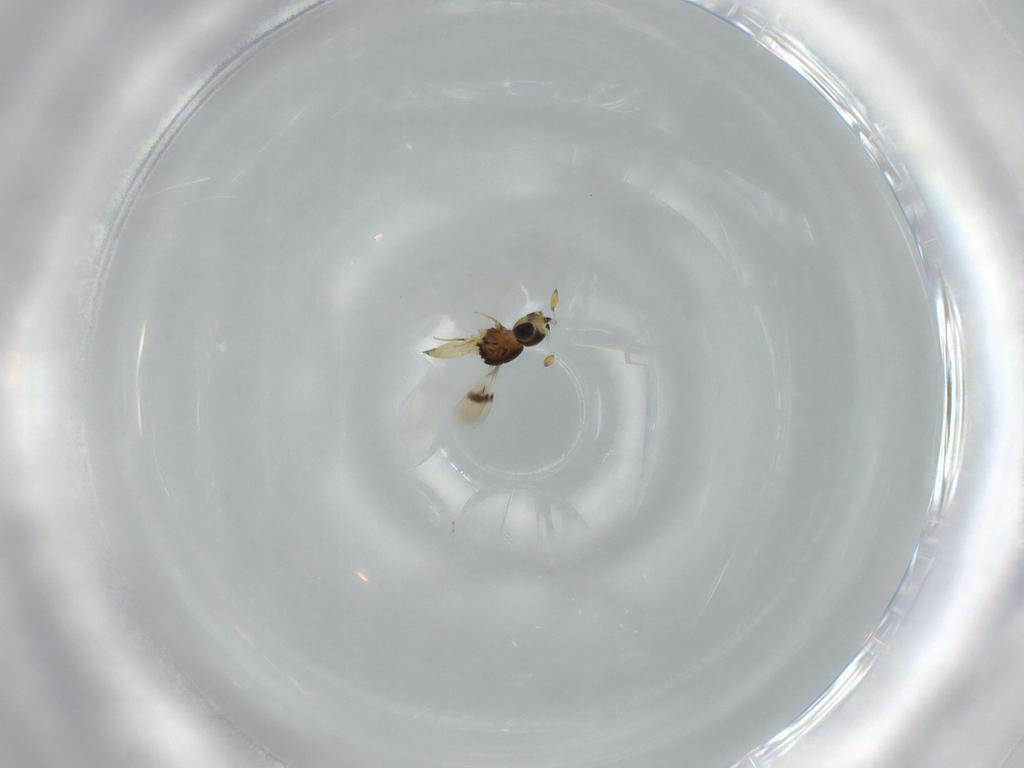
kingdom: Animalia
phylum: Arthropoda
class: Insecta
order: Hymenoptera
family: Scelionidae
